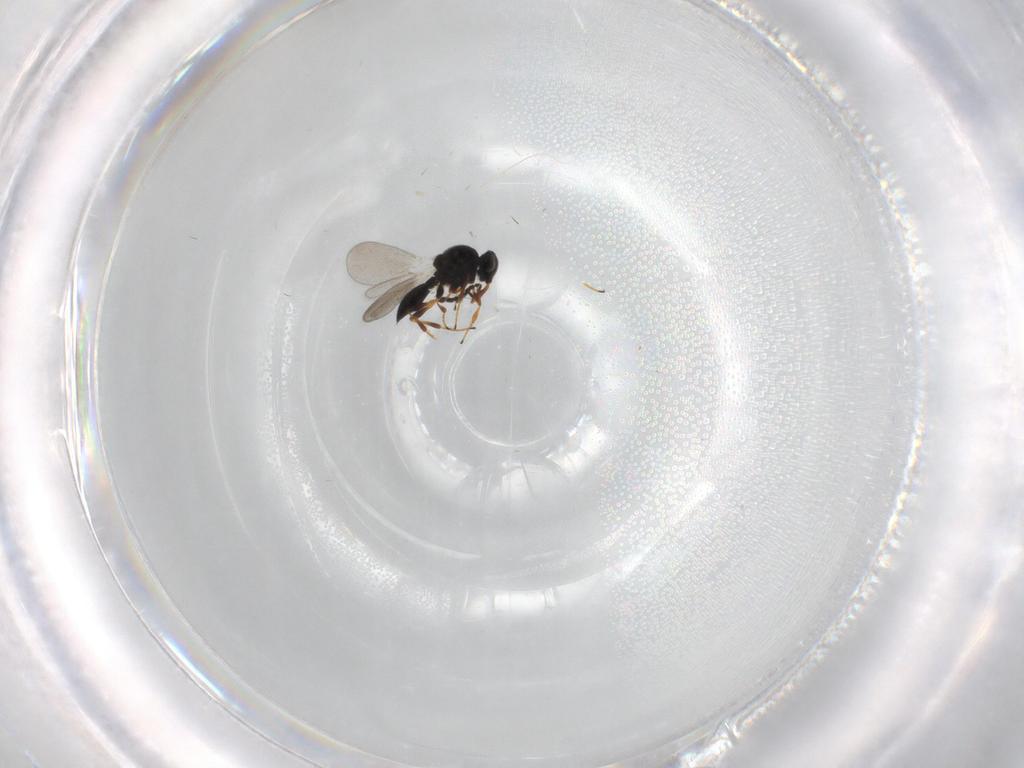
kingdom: Animalia
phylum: Arthropoda
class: Insecta
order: Hymenoptera
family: Platygastridae
